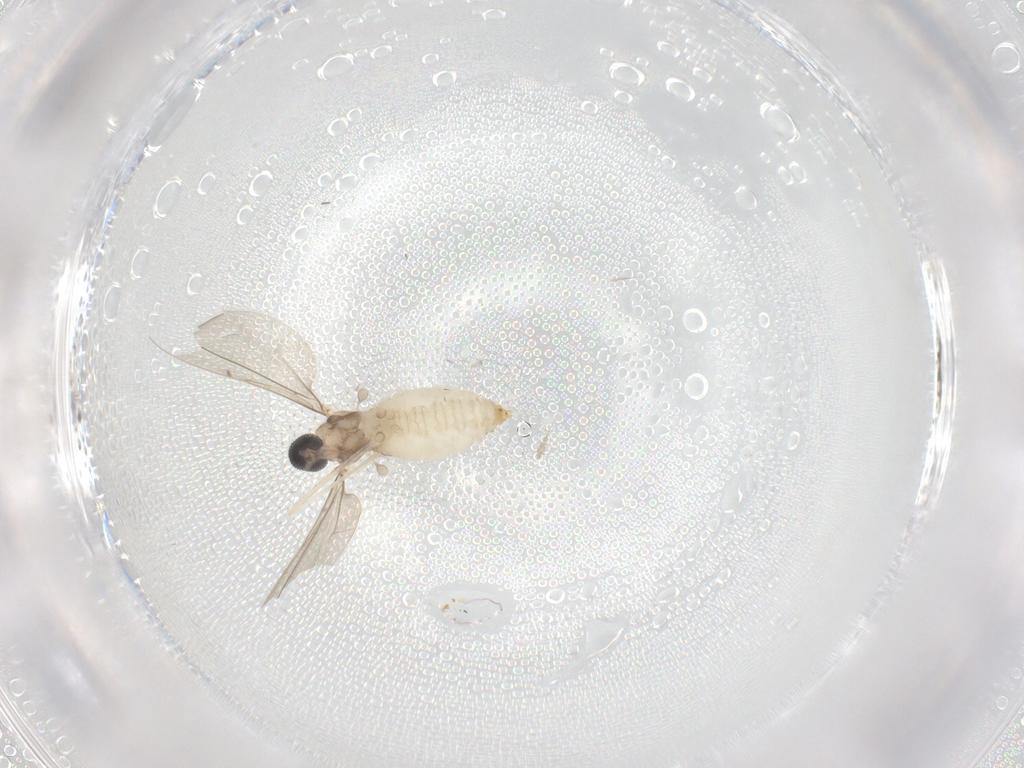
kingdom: Animalia
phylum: Arthropoda
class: Insecta
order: Diptera
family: Cecidomyiidae
